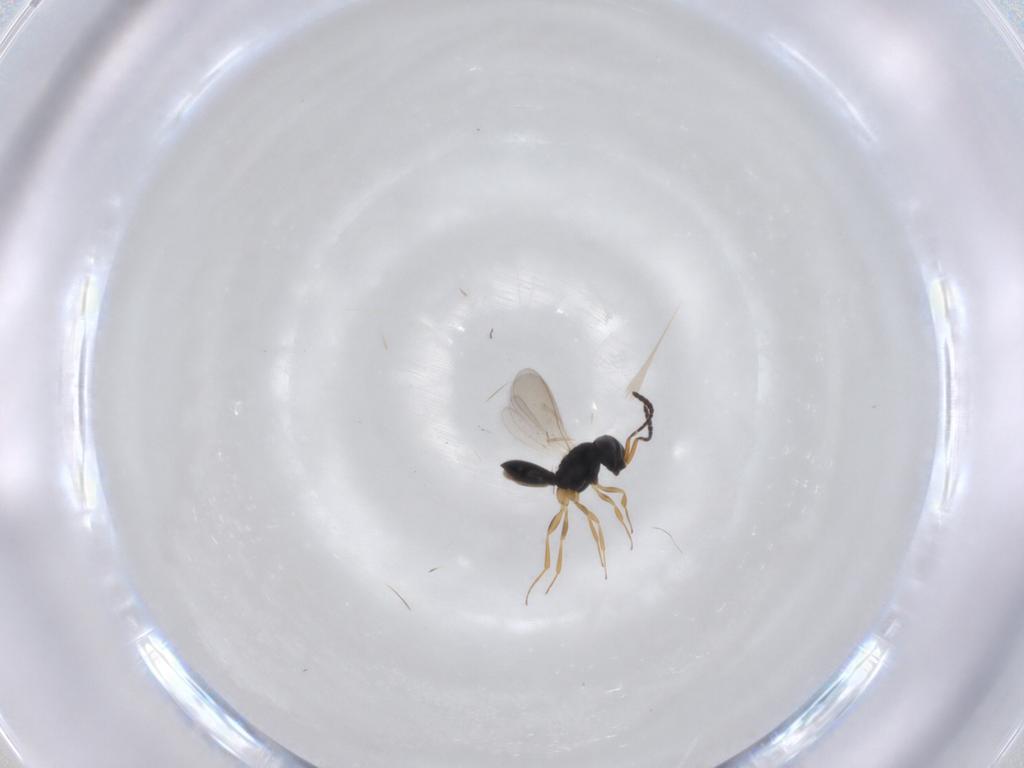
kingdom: Animalia
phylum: Arthropoda
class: Insecta
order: Hymenoptera
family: Scelionidae
